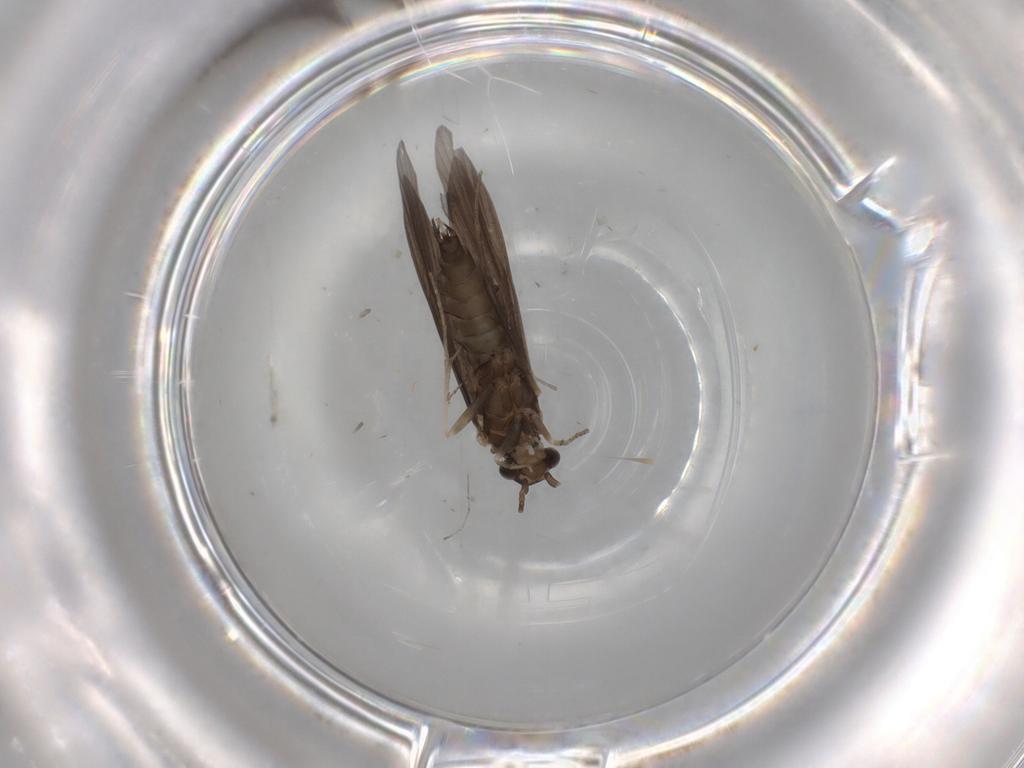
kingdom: Animalia
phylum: Arthropoda
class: Insecta
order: Trichoptera
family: Xiphocentronidae
